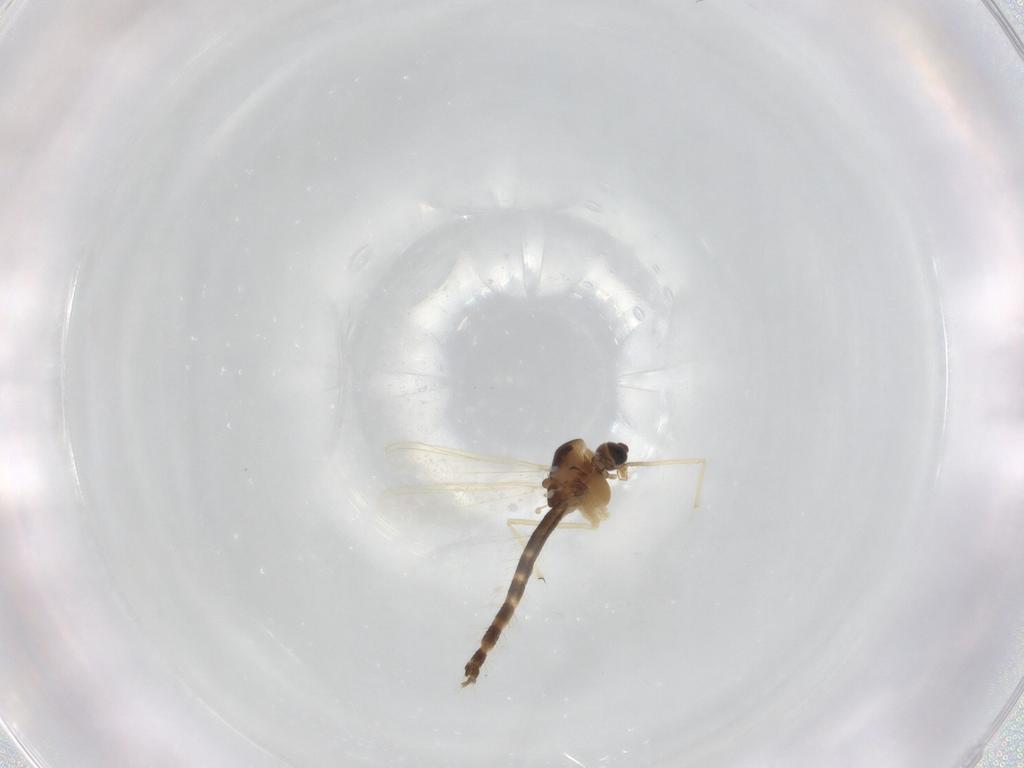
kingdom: Animalia
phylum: Arthropoda
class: Insecta
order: Diptera
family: Chironomidae
